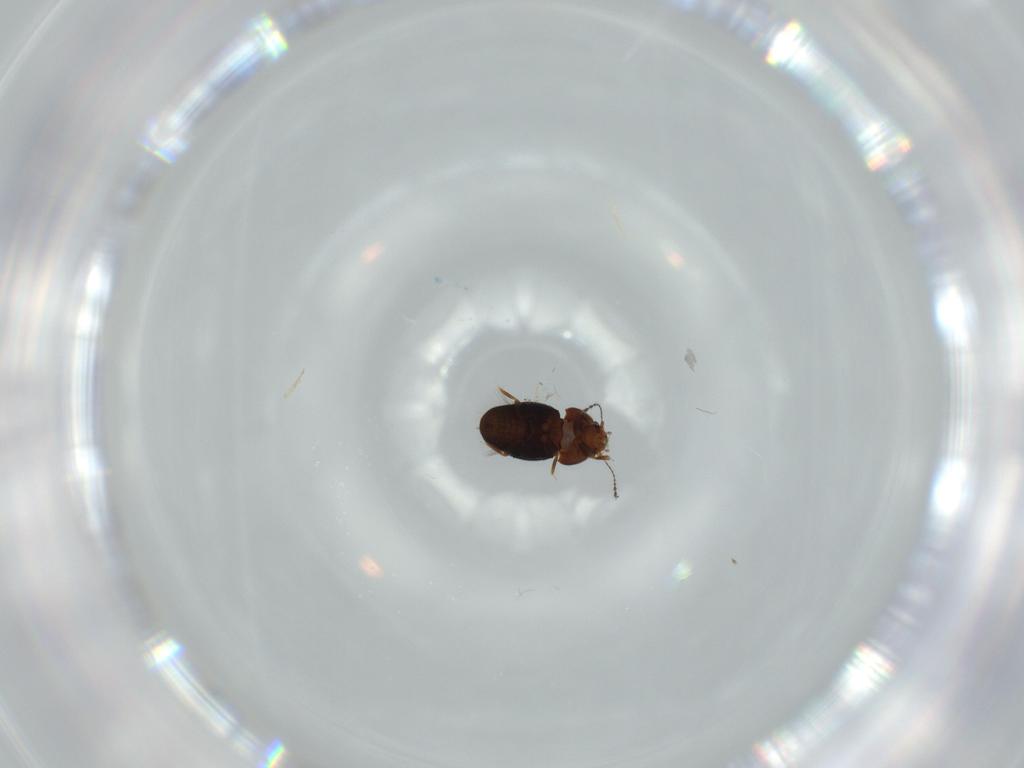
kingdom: Animalia
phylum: Arthropoda
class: Insecta
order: Coleoptera
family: Ptiliidae
